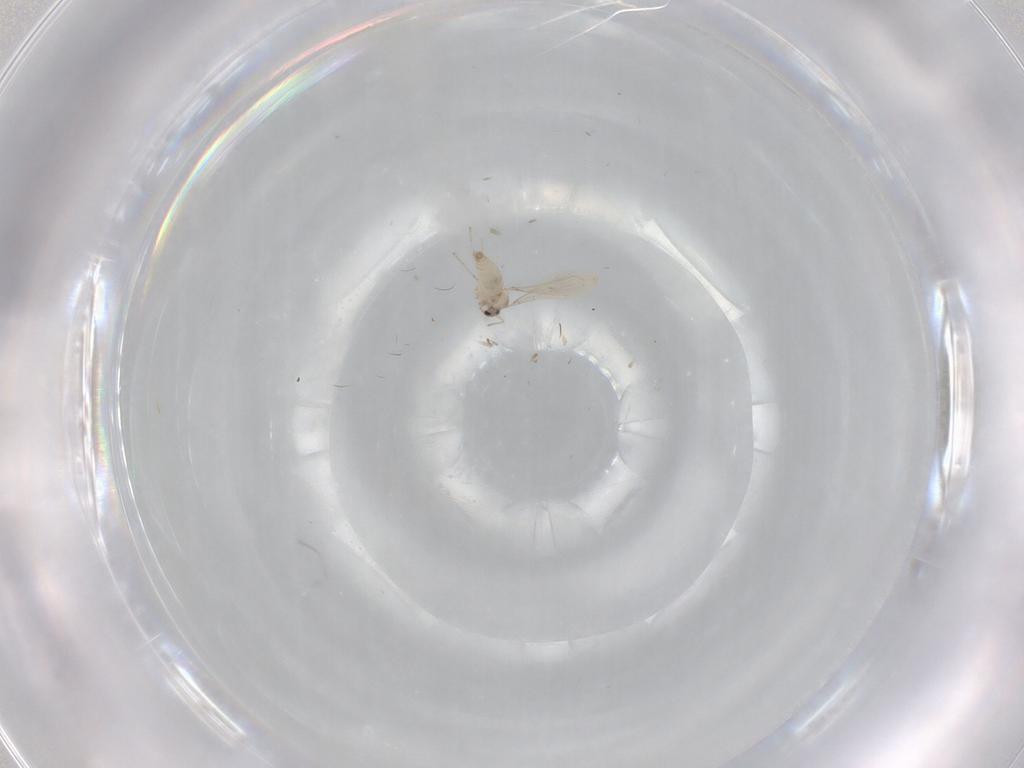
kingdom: Animalia
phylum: Arthropoda
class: Insecta
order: Diptera
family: Cecidomyiidae
